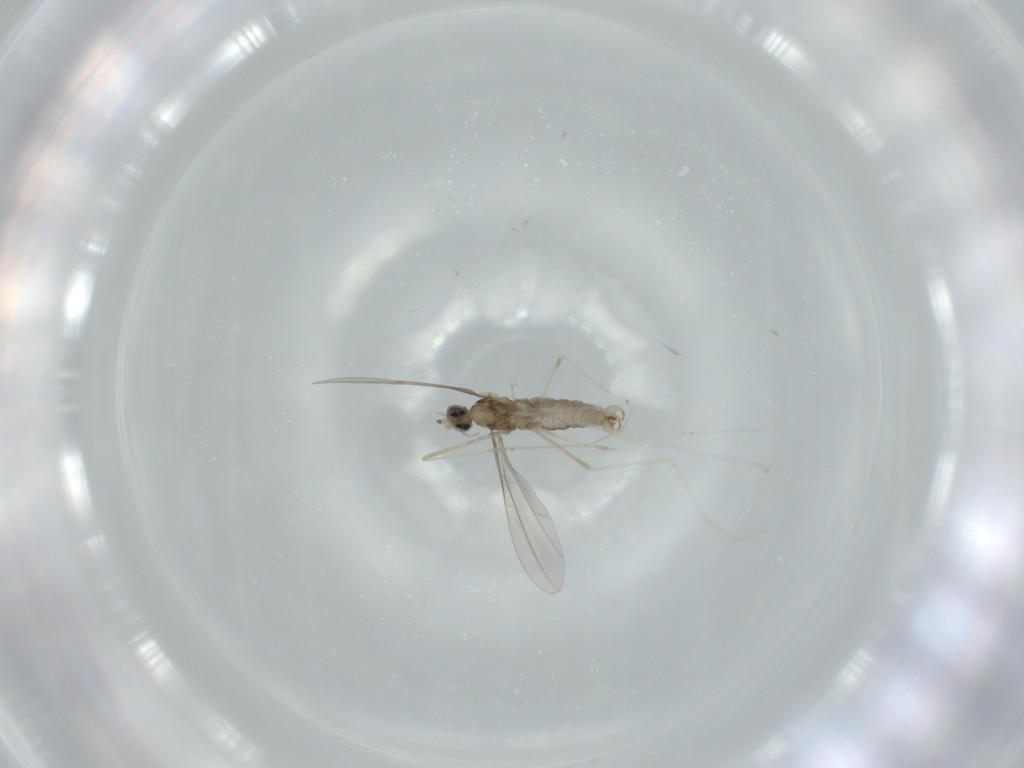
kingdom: Animalia
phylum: Arthropoda
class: Insecta
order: Diptera
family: Cecidomyiidae
